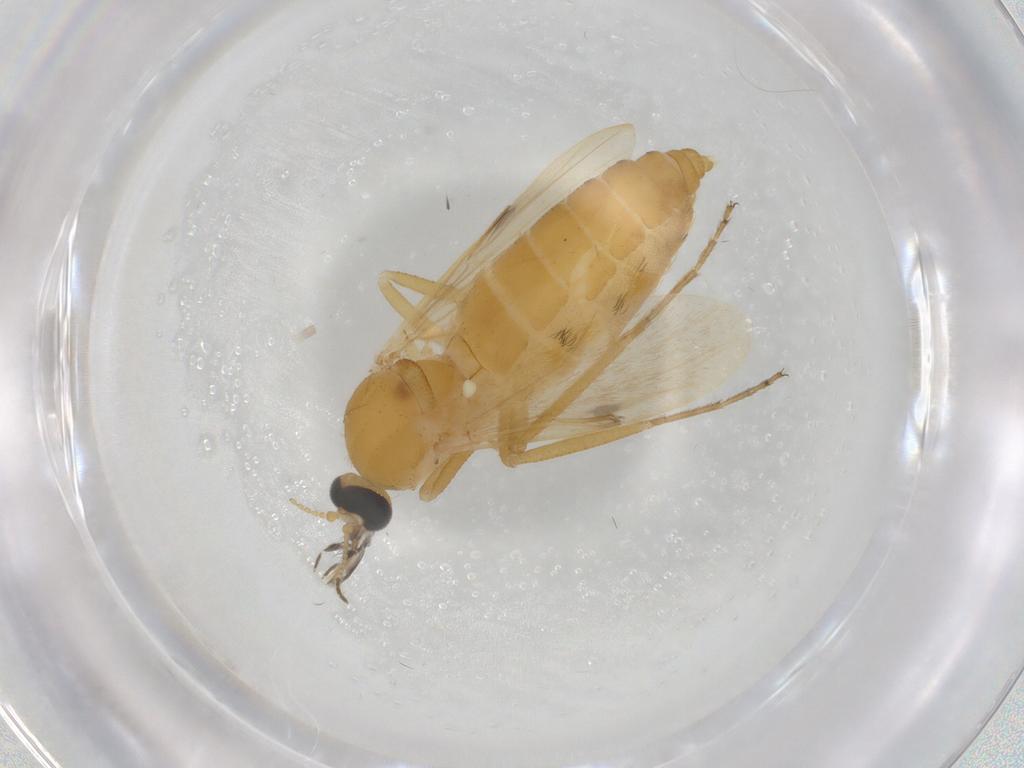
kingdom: Animalia
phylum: Arthropoda
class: Insecta
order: Diptera
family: Ceratopogonidae
